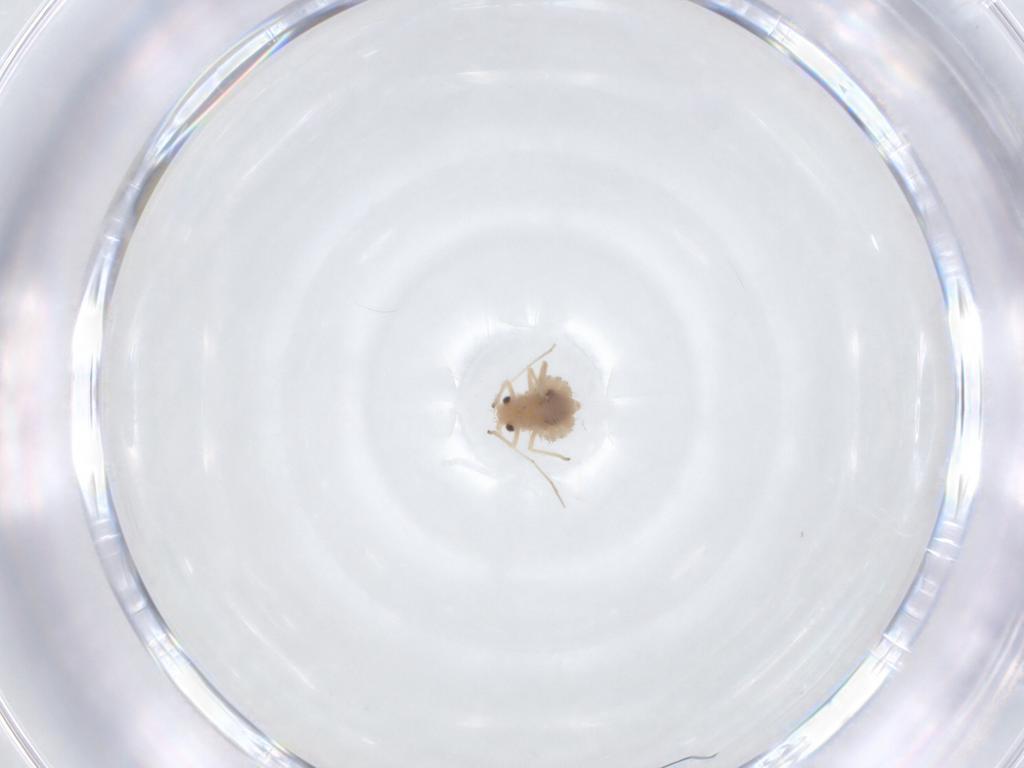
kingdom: Animalia
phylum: Arthropoda
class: Insecta
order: Hemiptera
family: Aphididae
